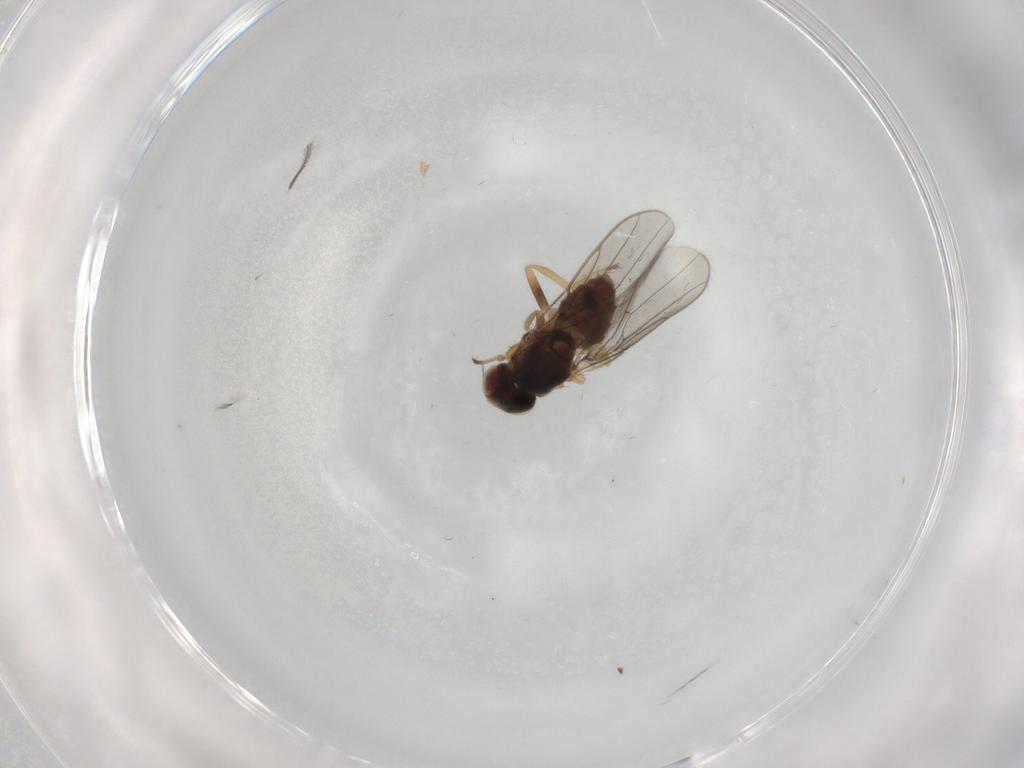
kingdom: Animalia
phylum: Arthropoda
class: Insecta
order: Diptera
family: Chloropidae
